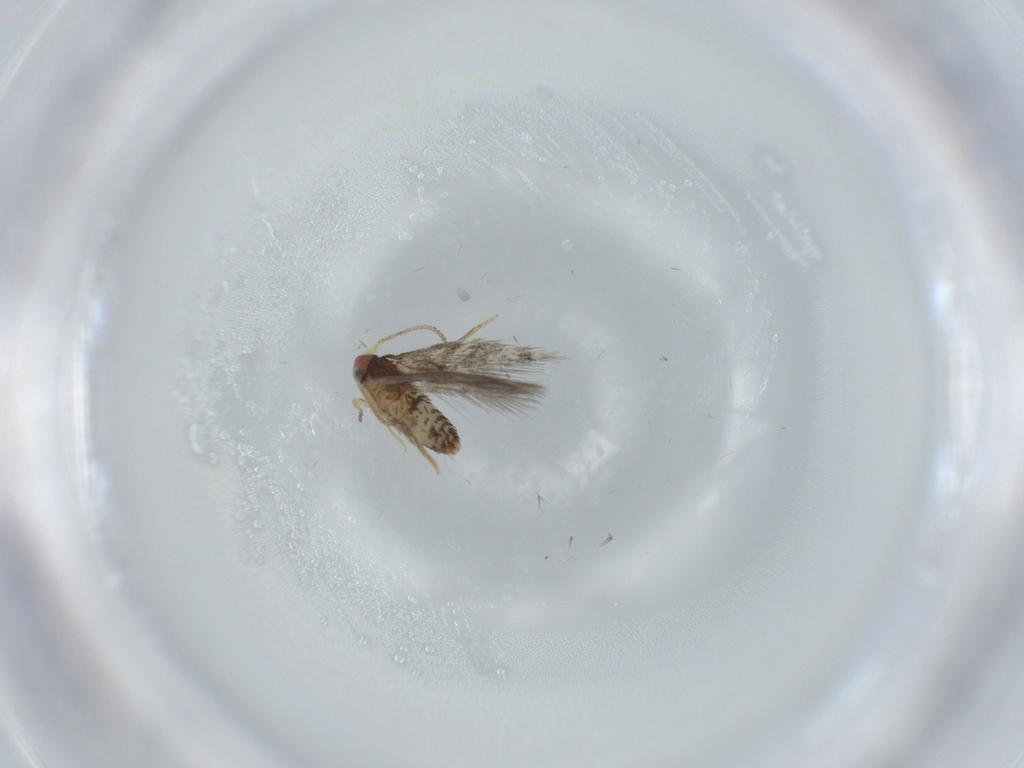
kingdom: Animalia
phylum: Arthropoda
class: Insecta
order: Lepidoptera
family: Nepticulidae
